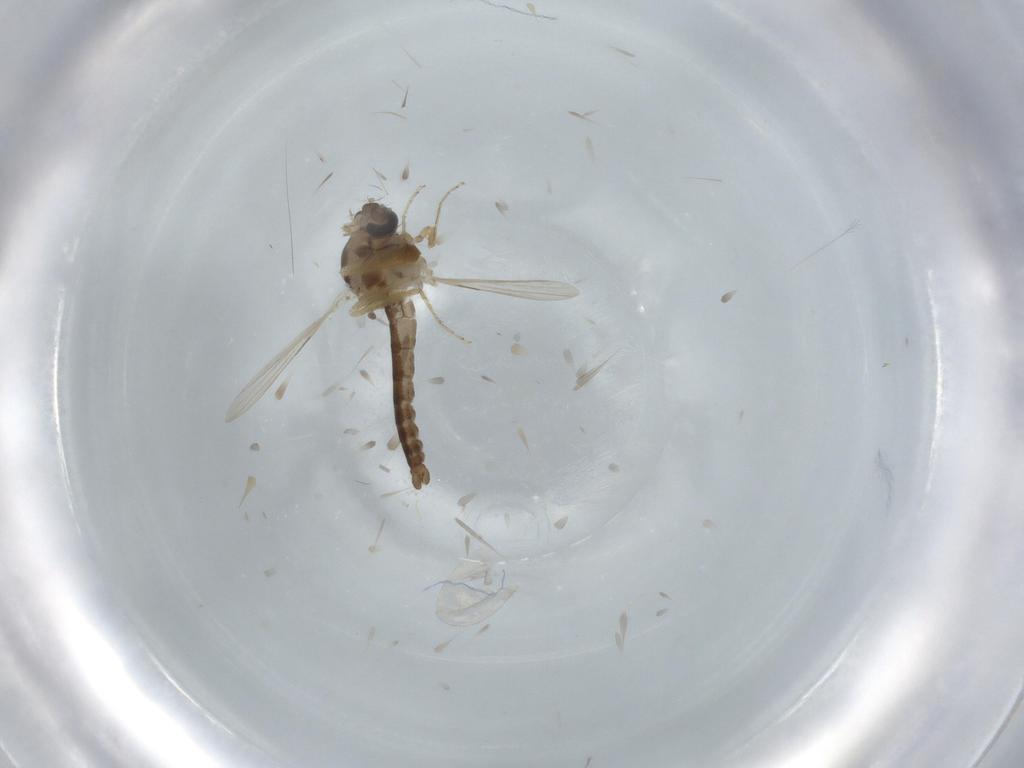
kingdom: Animalia
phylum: Arthropoda
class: Insecta
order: Diptera
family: Ceratopogonidae
